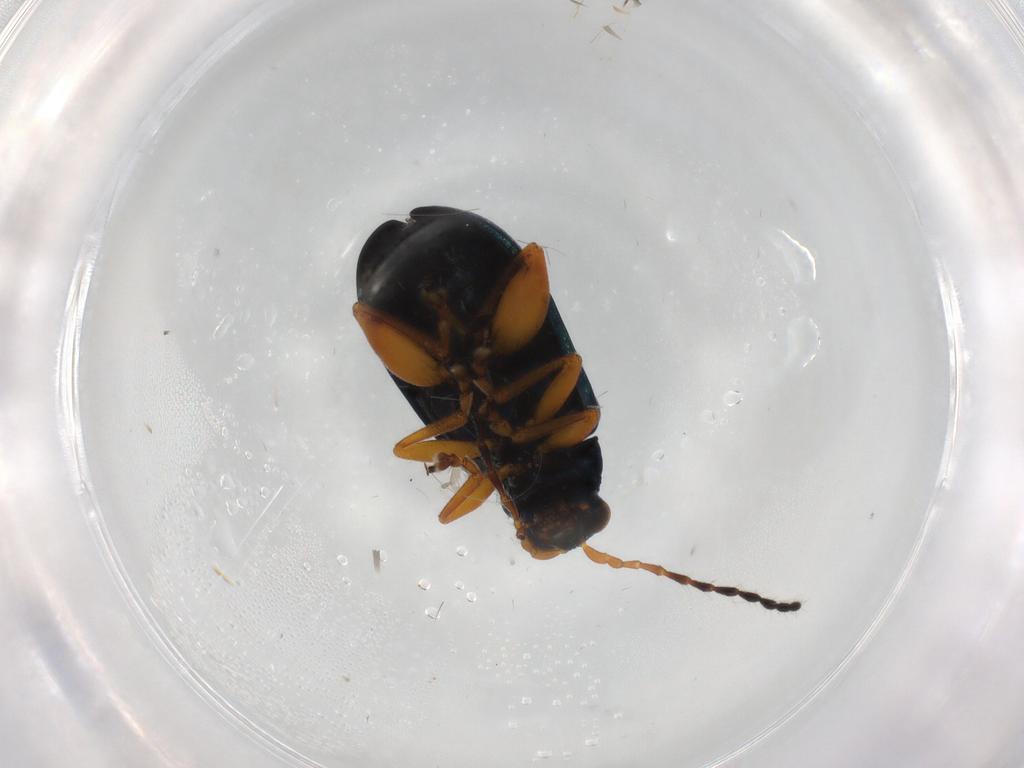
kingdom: Animalia
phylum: Arthropoda
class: Insecta
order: Coleoptera
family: Chrysomelidae
